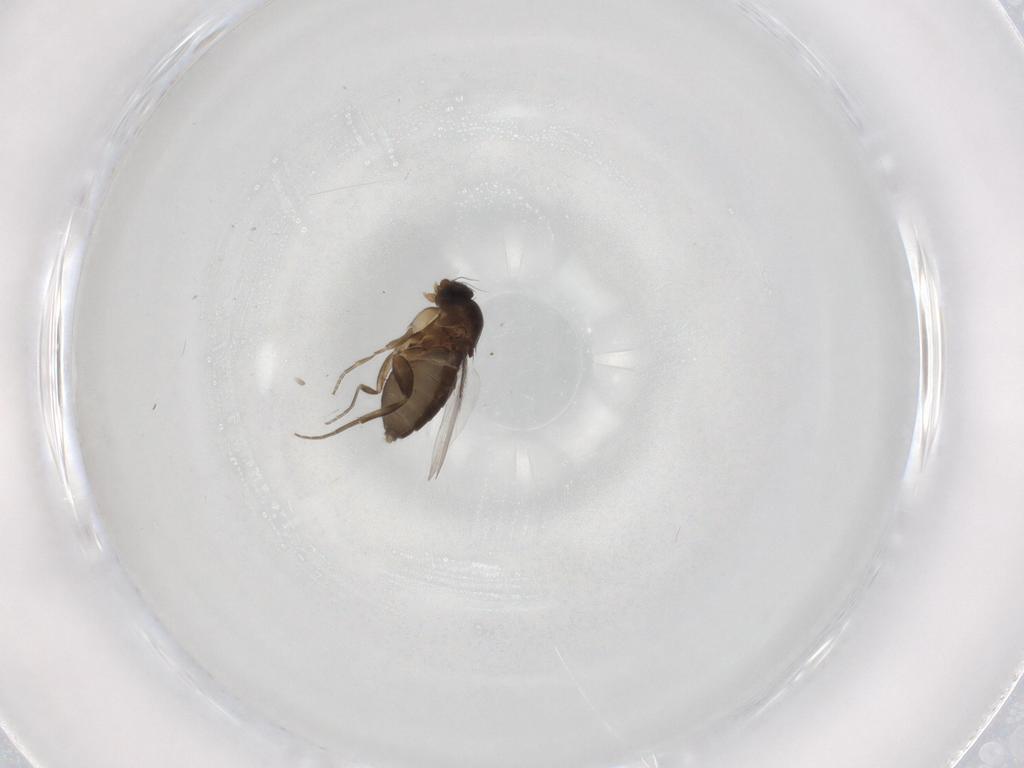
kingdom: Animalia
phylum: Arthropoda
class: Insecta
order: Diptera
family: Phoridae
